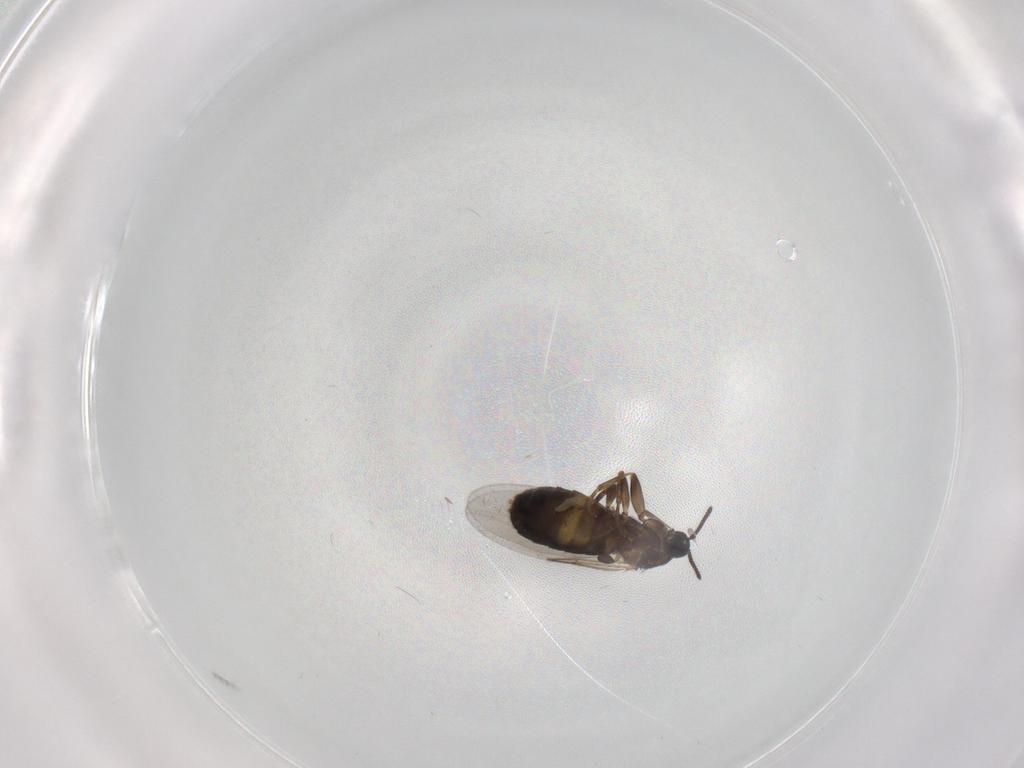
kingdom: Animalia
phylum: Arthropoda
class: Insecta
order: Diptera
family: Scatopsidae
